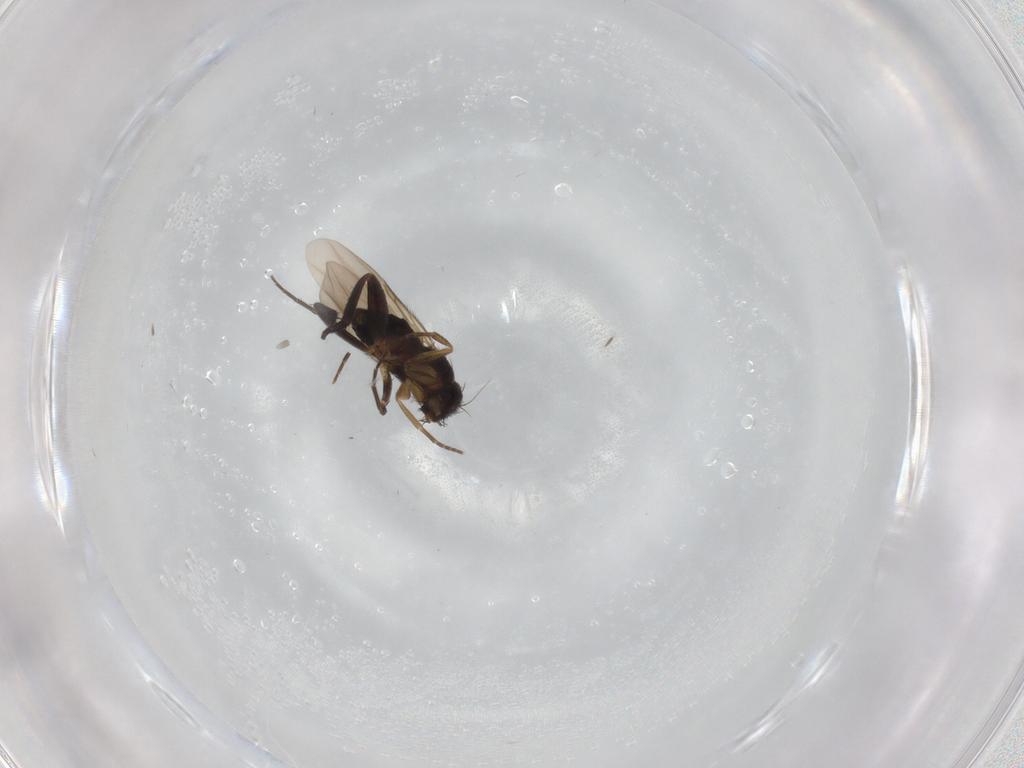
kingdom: Animalia
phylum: Arthropoda
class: Insecta
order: Diptera
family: Phoridae
